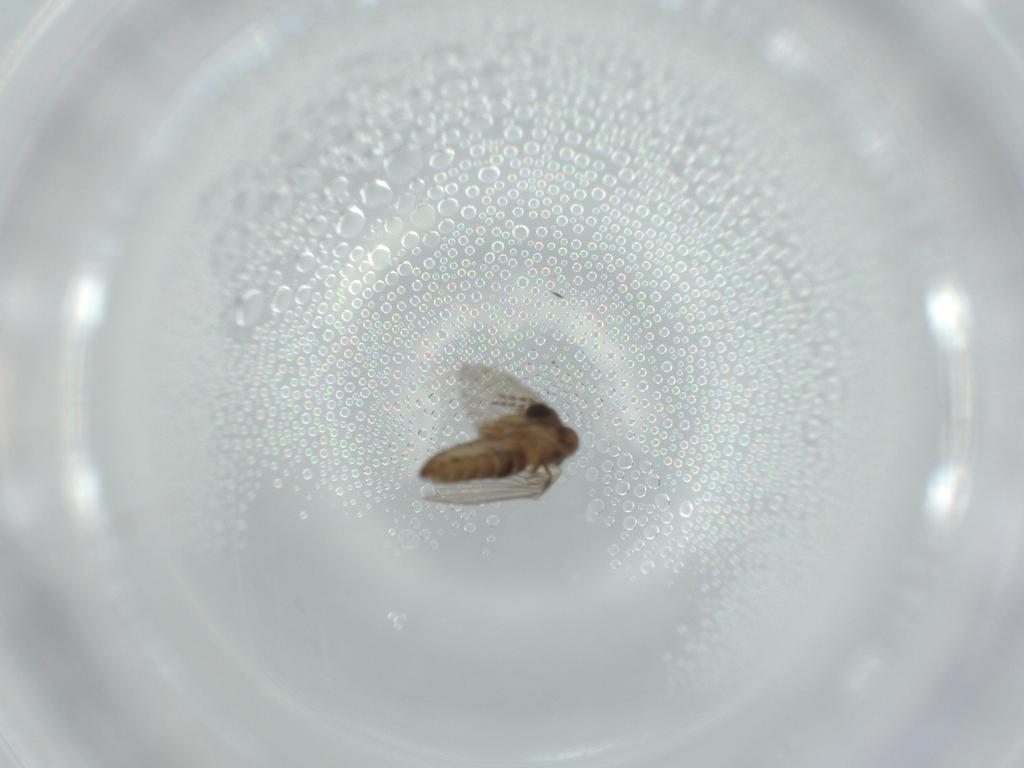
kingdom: Animalia
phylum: Arthropoda
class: Insecta
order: Diptera
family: Psychodidae
